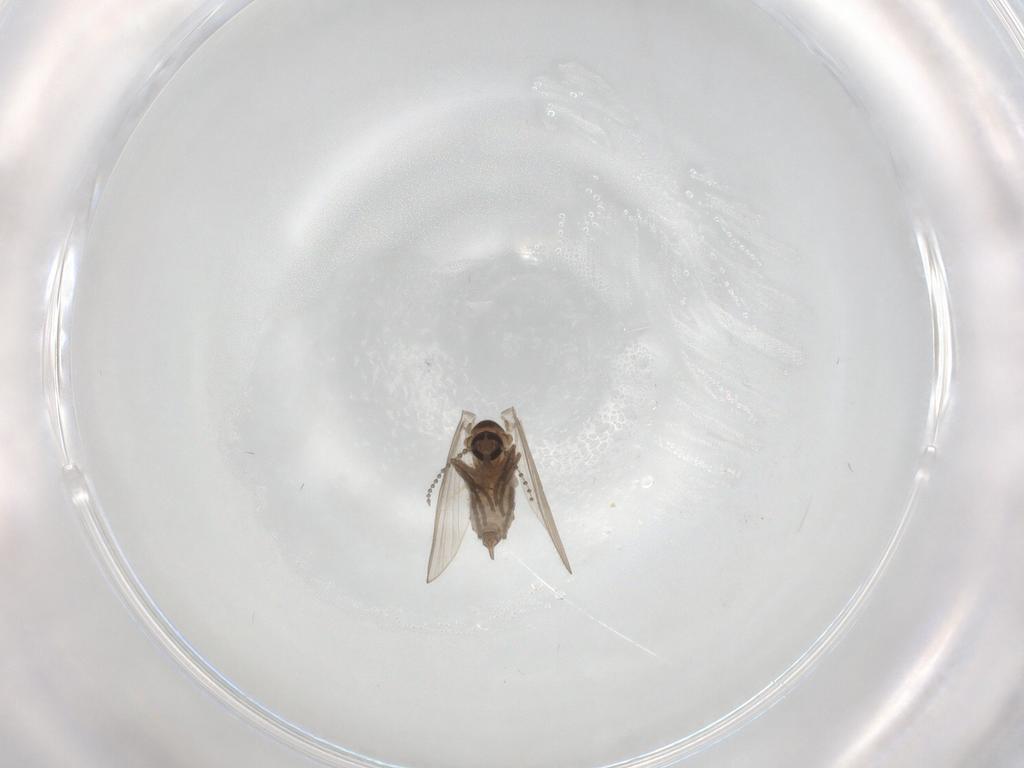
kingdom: Animalia
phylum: Arthropoda
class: Insecta
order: Diptera
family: Psychodidae
